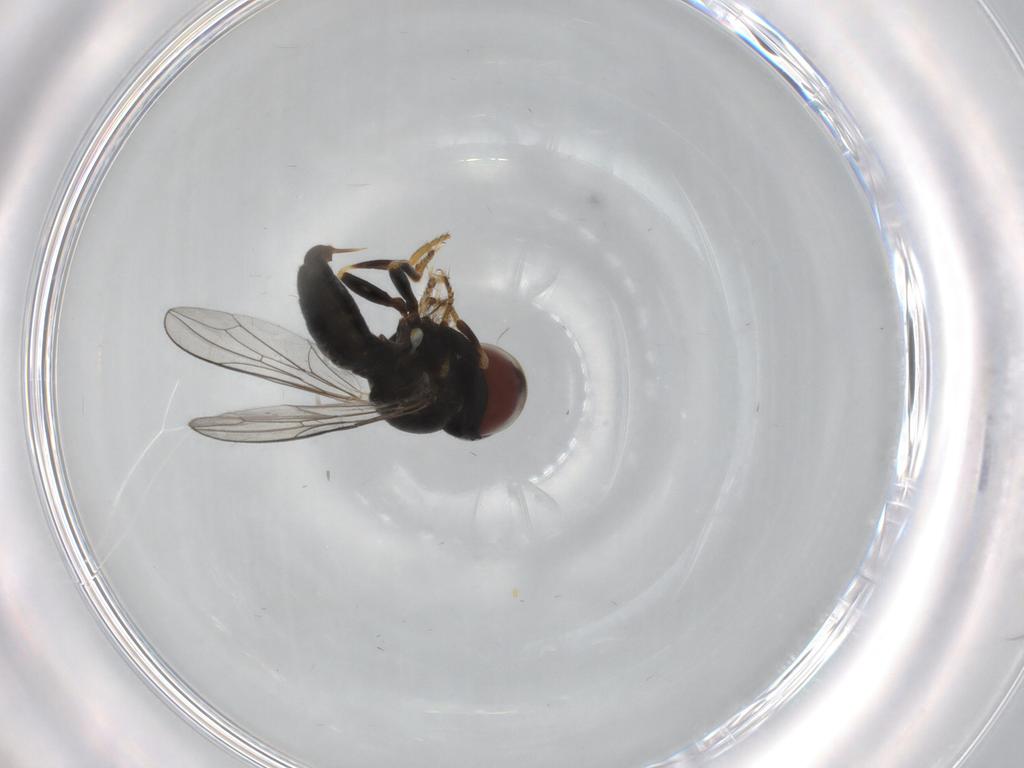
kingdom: Animalia
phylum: Arthropoda
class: Insecta
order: Diptera
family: Pipunculidae
